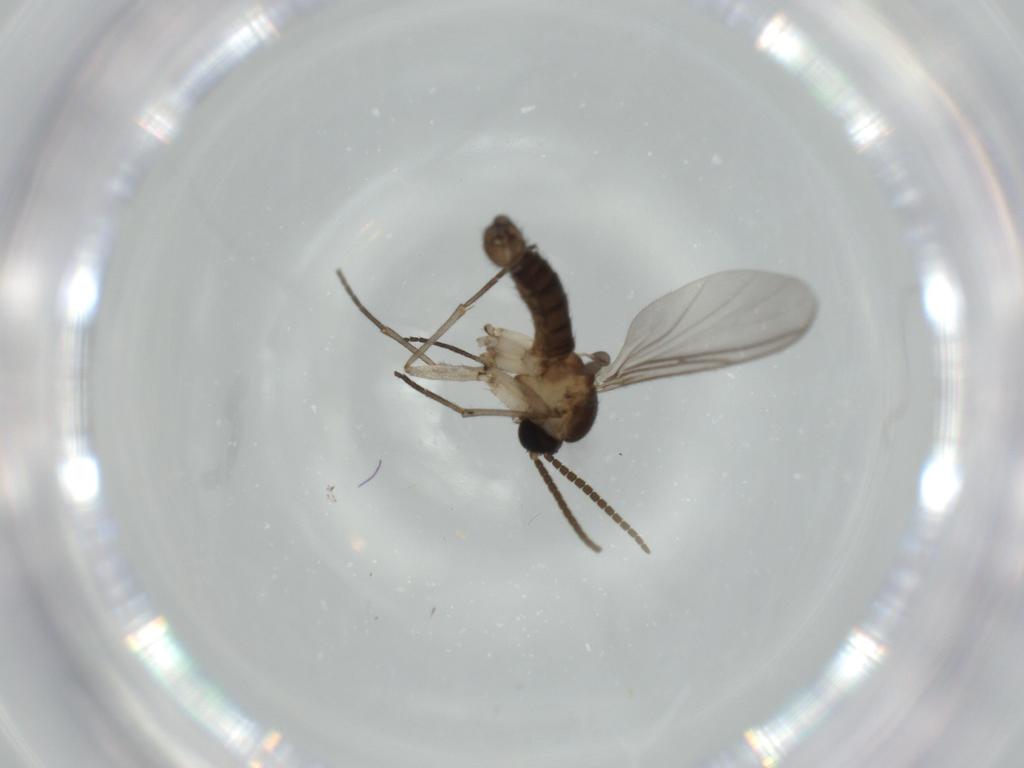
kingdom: Animalia
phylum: Arthropoda
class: Insecta
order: Diptera
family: Sciaridae
